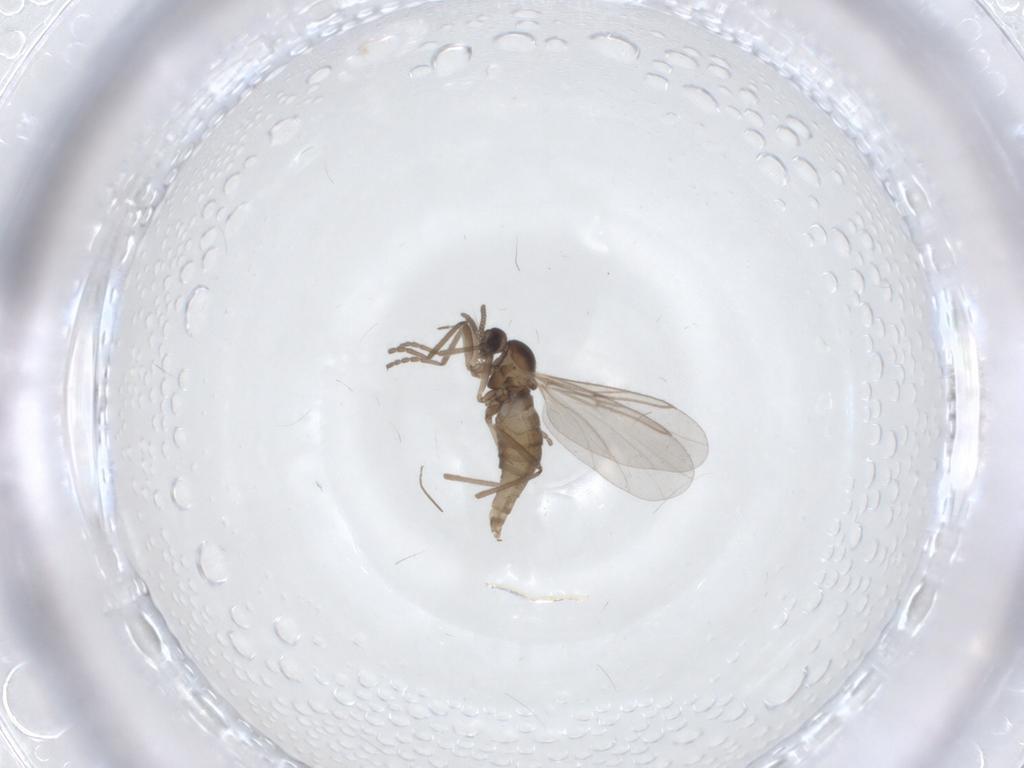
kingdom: Animalia
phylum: Arthropoda
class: Insecta
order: Diptera
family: Cecidomyiidae
